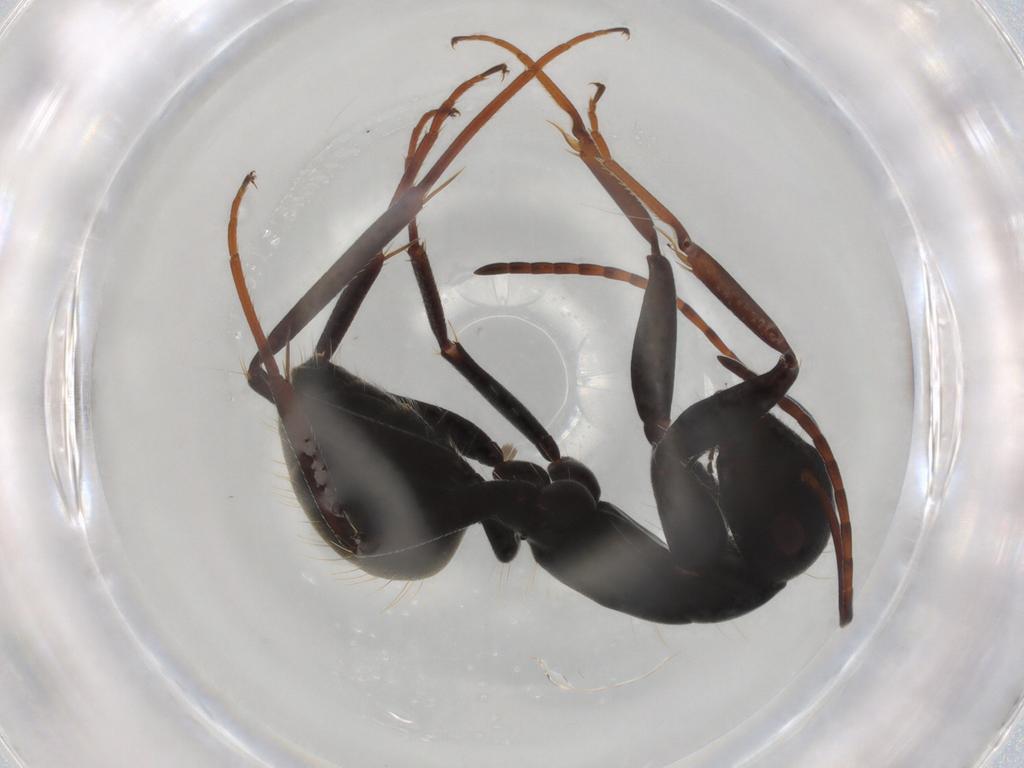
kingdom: Animalia
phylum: Arthropoda
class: Insecta
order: Hymenoptera
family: Formicidae
